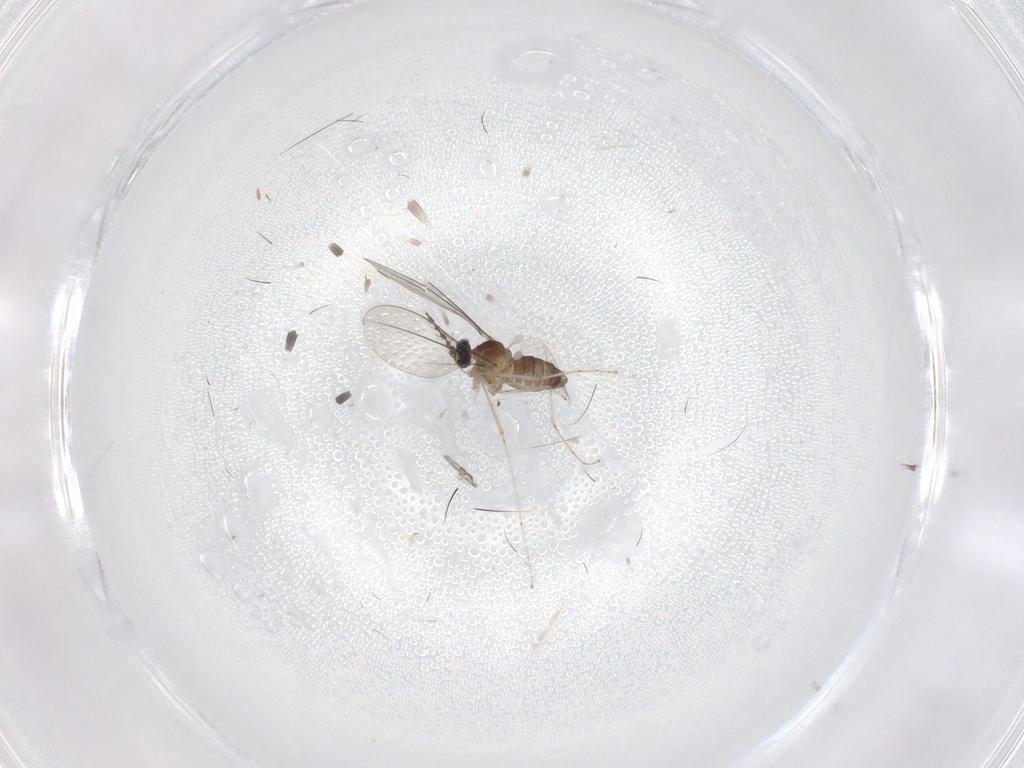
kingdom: Animalia
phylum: Arthropoda
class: Insecta
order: Diptera
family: Cecidomyiidae
